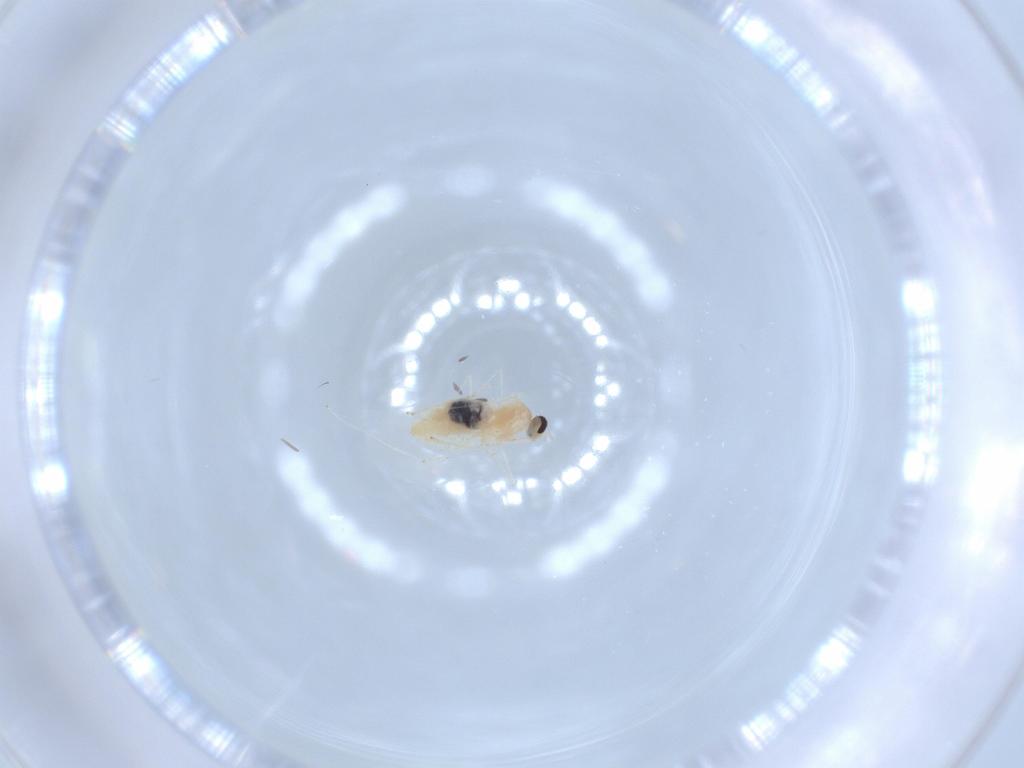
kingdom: Animalia
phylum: Arthropoda
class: Insecta
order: Diptera
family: Cecidomyiidae
